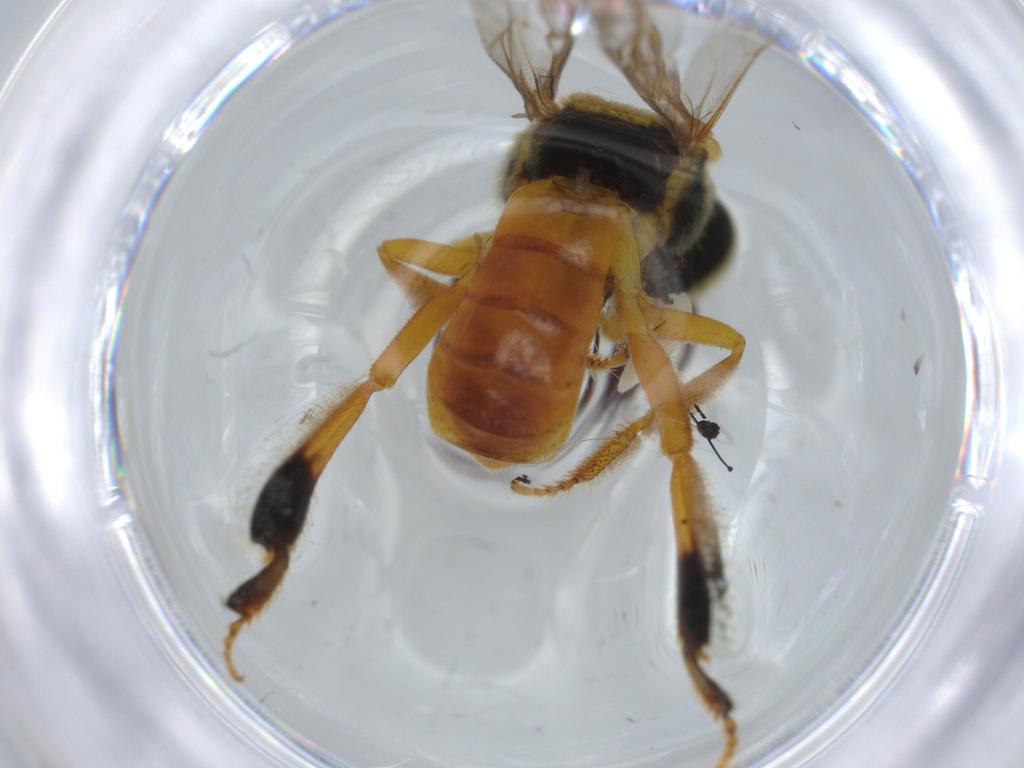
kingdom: Animalia
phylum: Arthropoda
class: Insecta
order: Hymenoptera
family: Apidae
